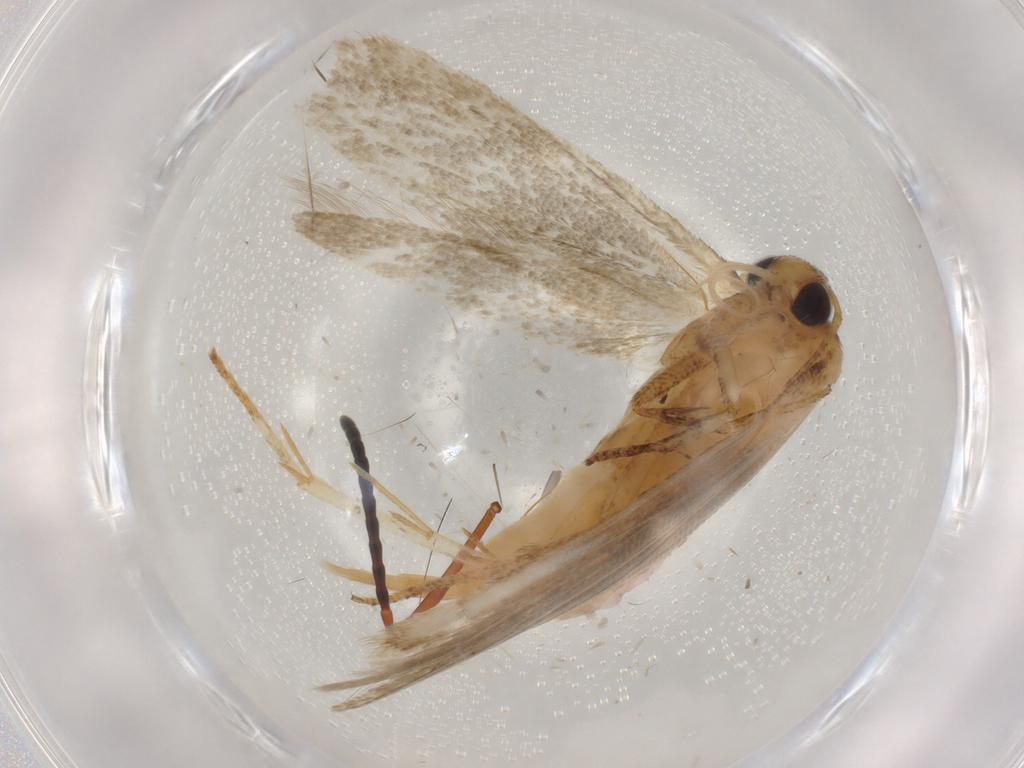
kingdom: Animalia
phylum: Arthropoda
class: Insecta
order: Lepidoptera
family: Blastobasidae
